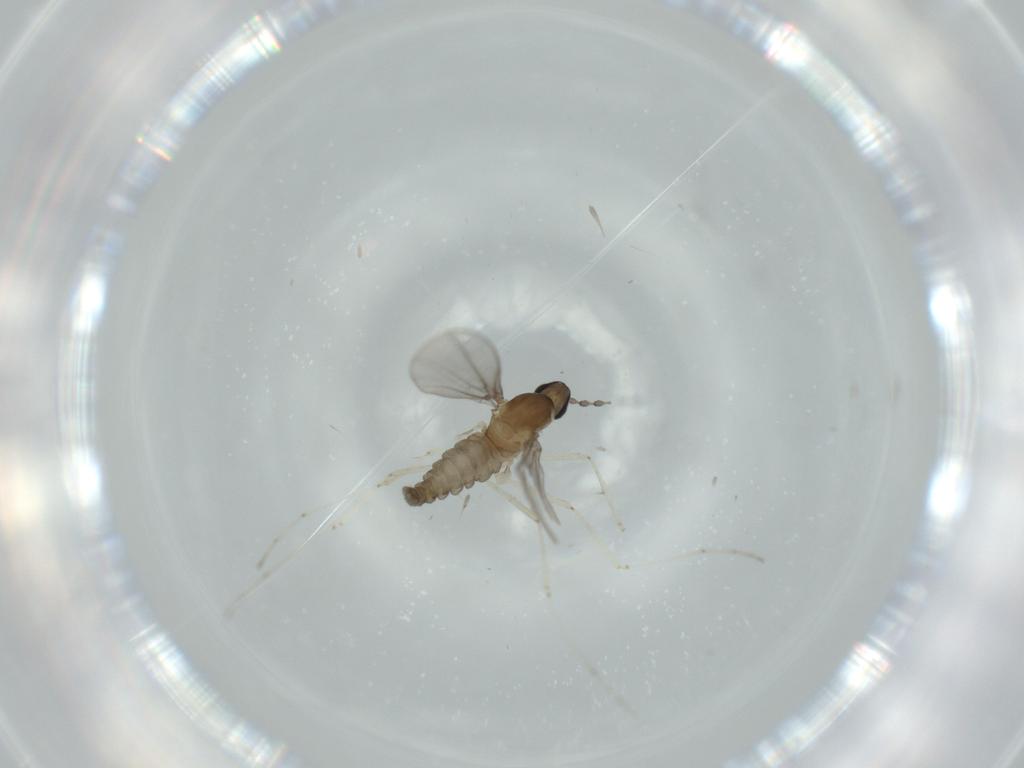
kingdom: Animalia
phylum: Arthropoda
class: Insecta
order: Diptera
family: Cecidomyiidae
